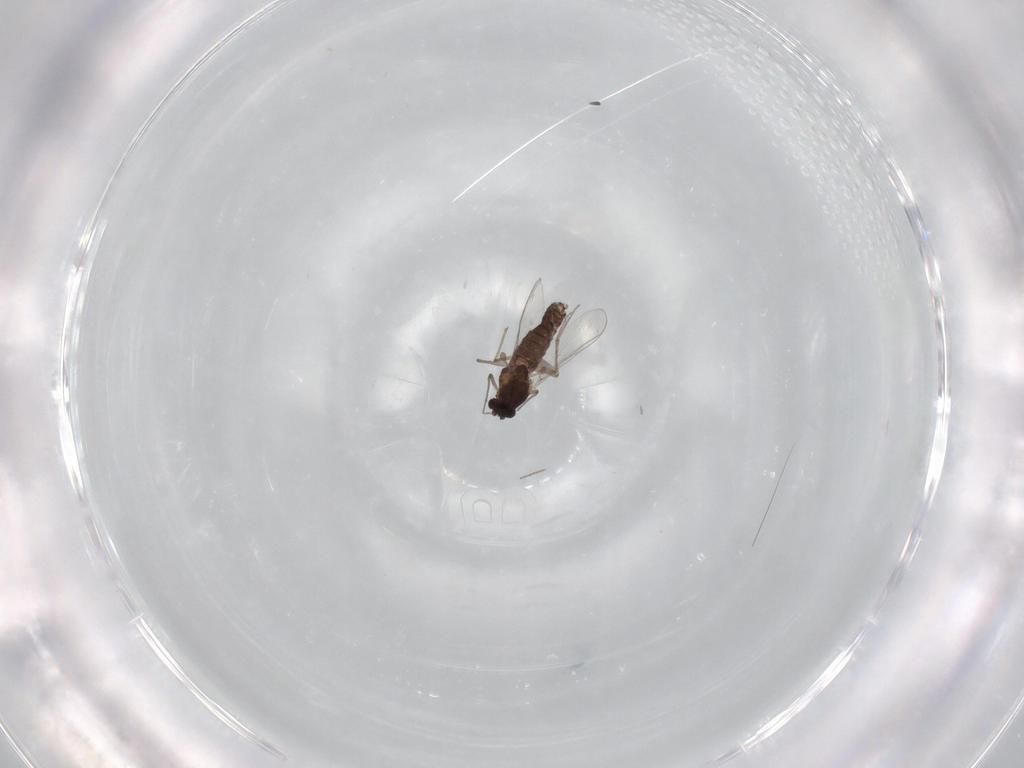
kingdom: Animalia
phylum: Arthropoda
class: Insecta
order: Diptera
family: Chironomidae
